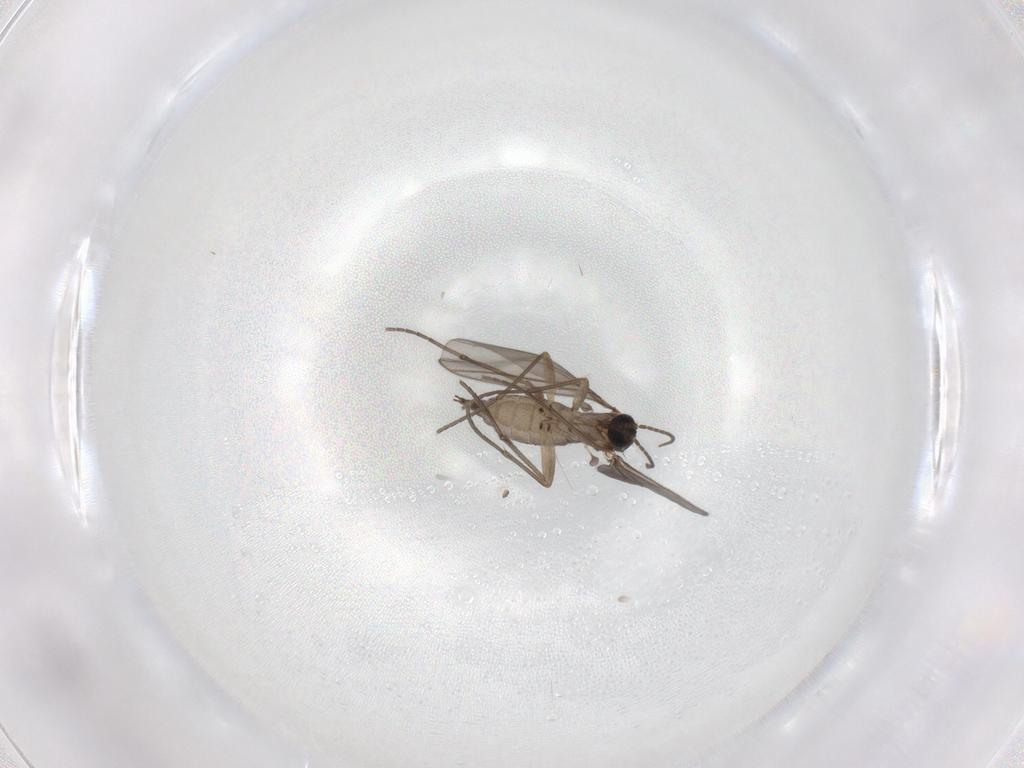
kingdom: Animalia
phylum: Arthropoda
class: Insecta
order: Diptera
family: Sciaridae
